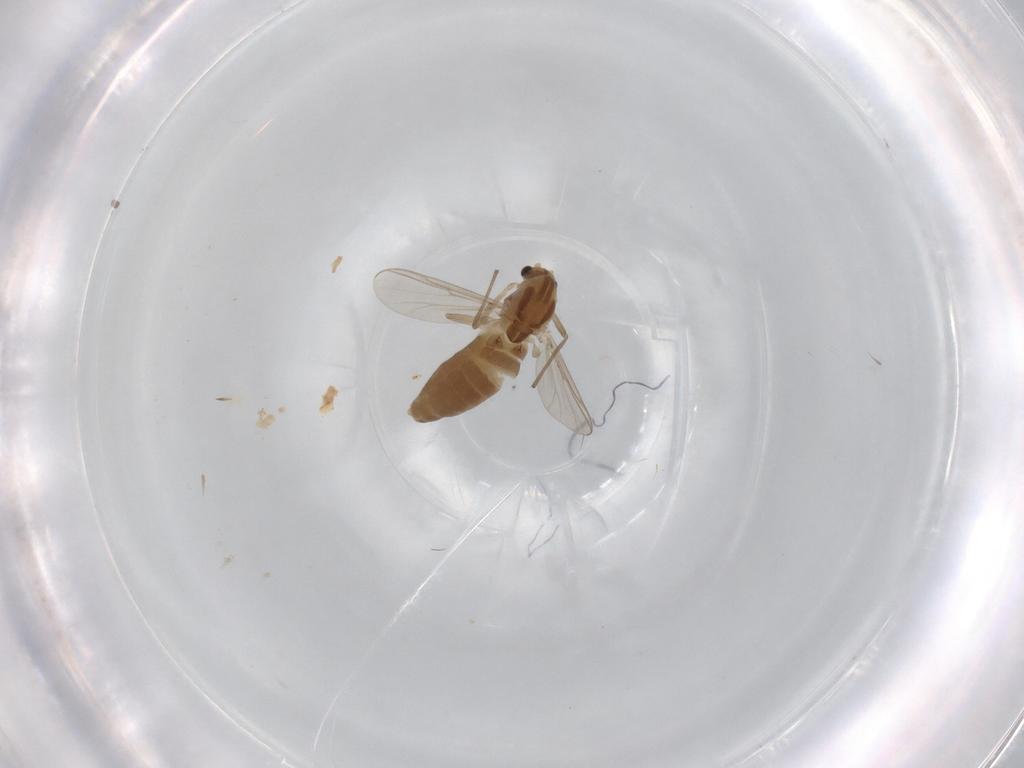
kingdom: Animalia
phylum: Arthropoda
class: Insecta
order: Diptera
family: Chironomidae
